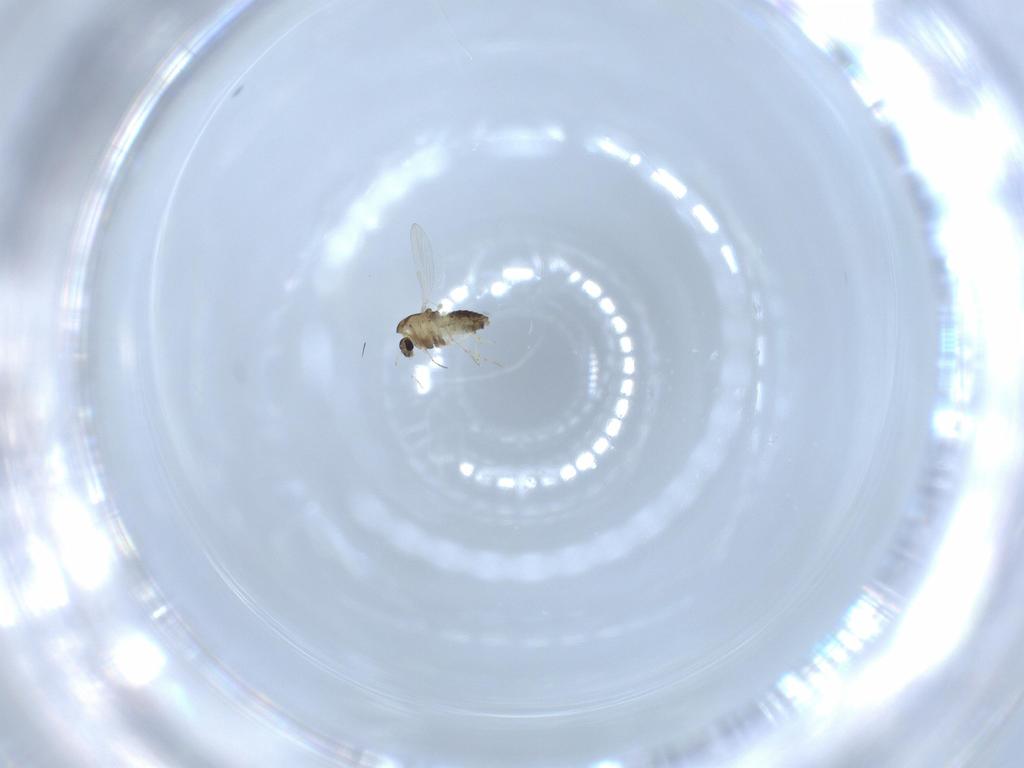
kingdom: Animalia
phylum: Arthropoda
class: Insecta
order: Diptera
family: Chironomidae
